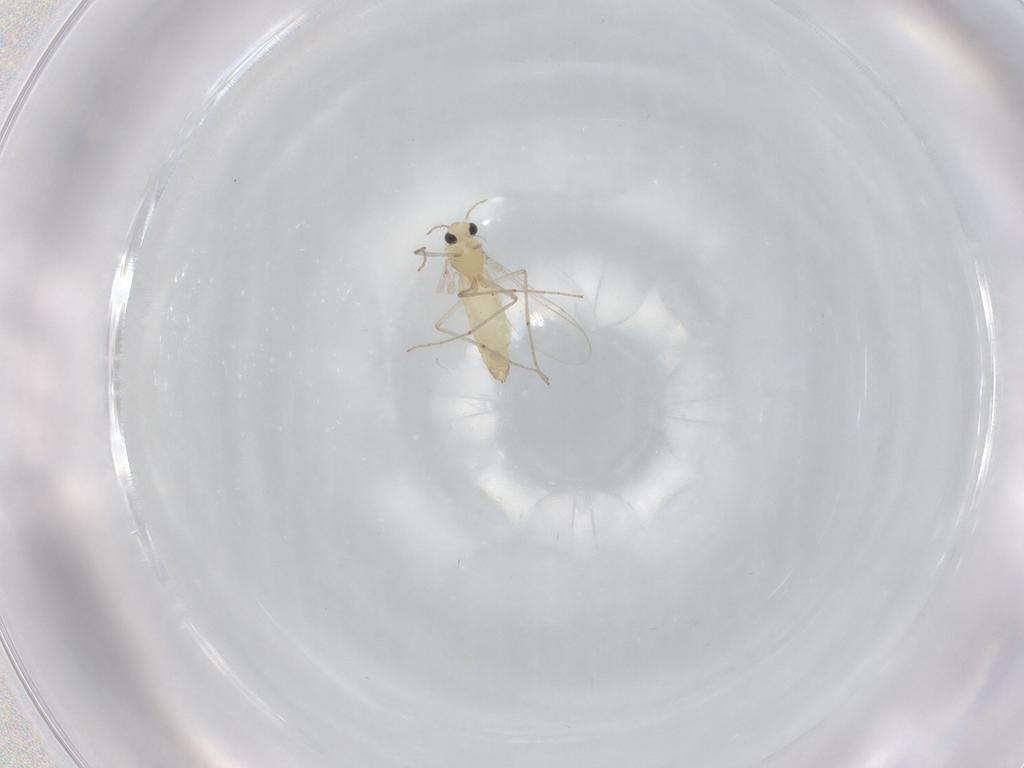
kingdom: Animalia
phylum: Arthropoda
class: Insecta
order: Diptera
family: Chironomidae
